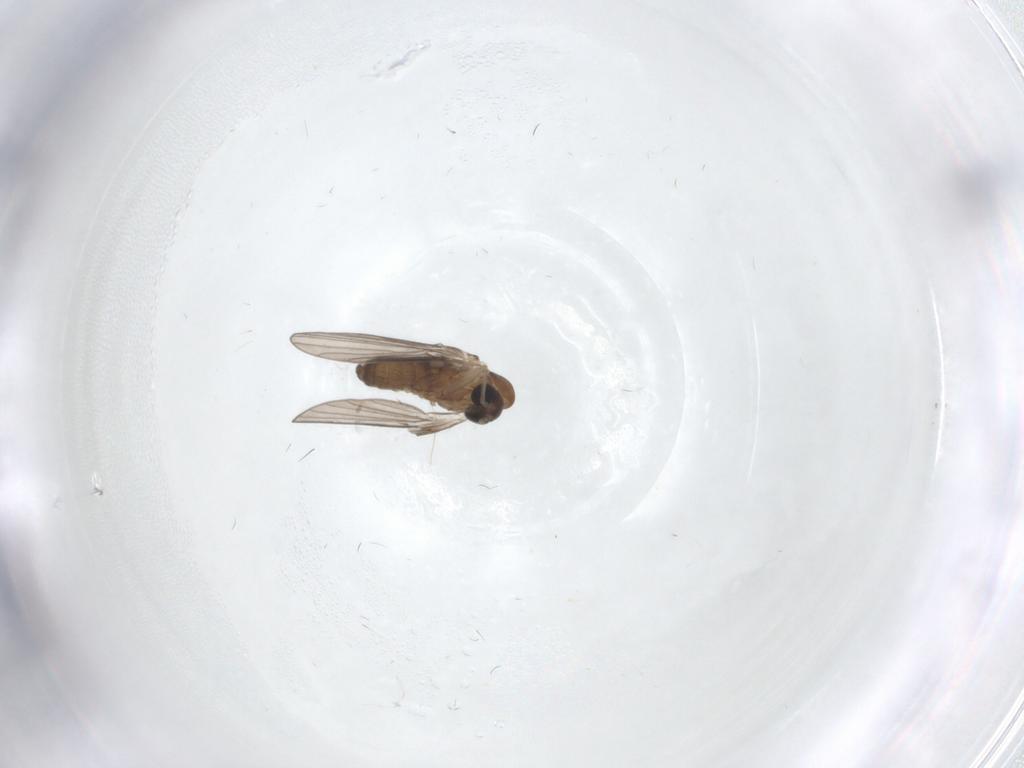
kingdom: Animalia
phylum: Arthropoda
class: Insecta
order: Diptera
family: Psychodidae
